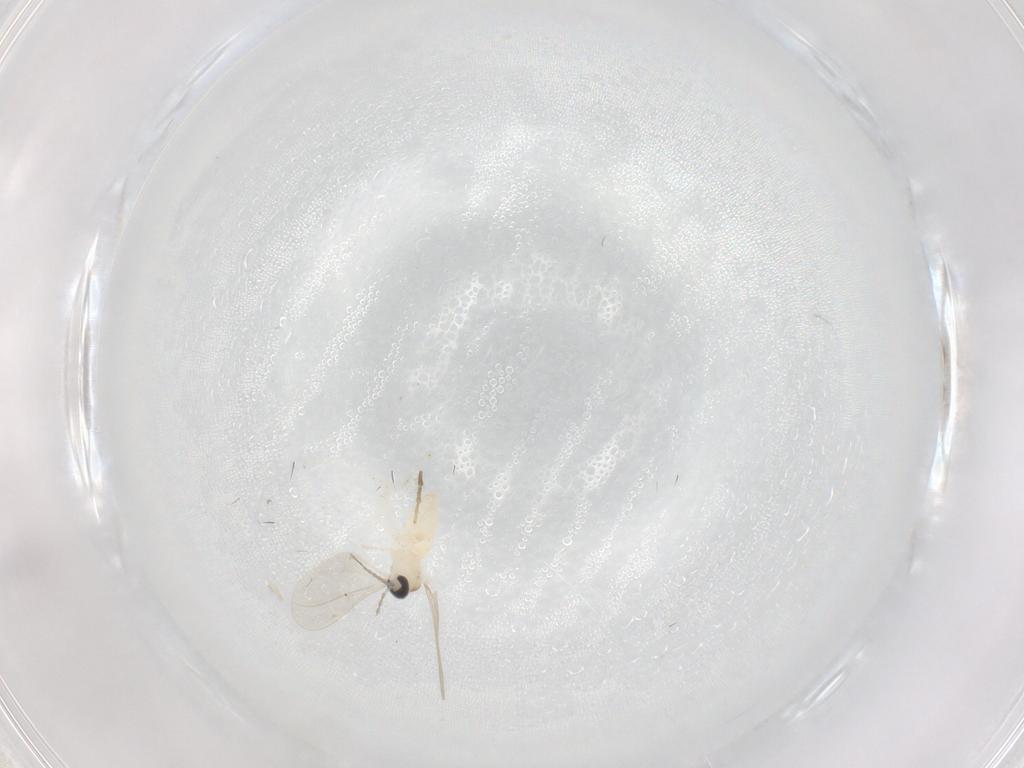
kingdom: Animalia
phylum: Arthropoda
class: Insecta
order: Diptera
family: Cecidomyiidae
